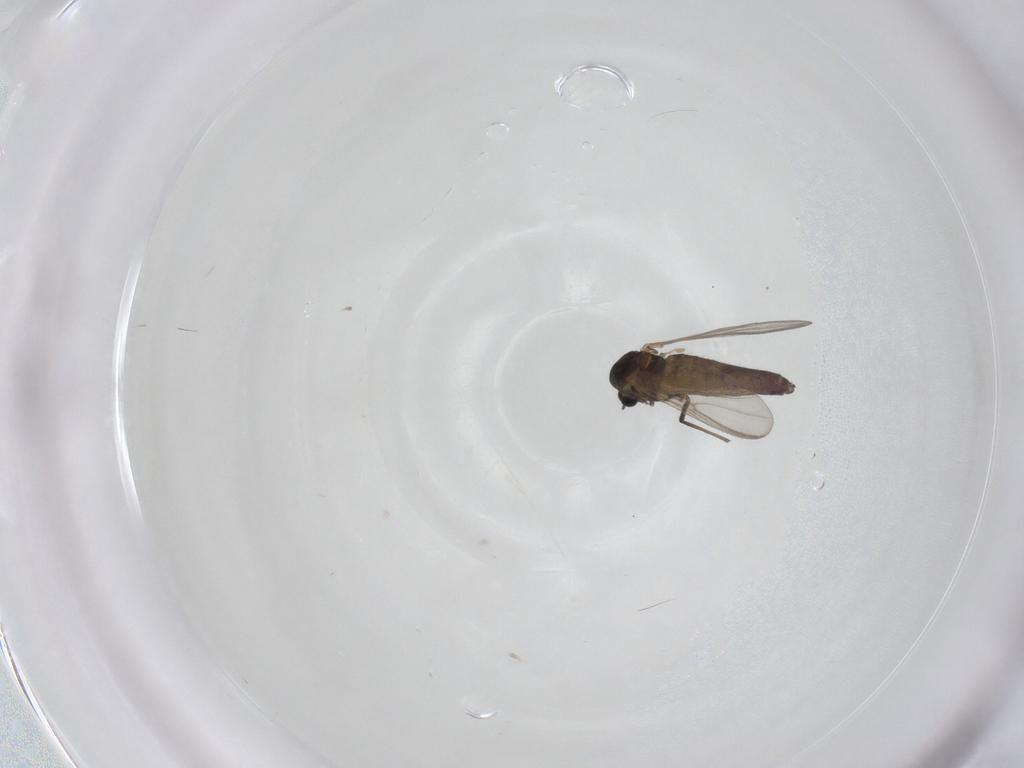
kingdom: Animalia
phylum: Arthropoda
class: Insecta
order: Diptera
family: Chironomidae
